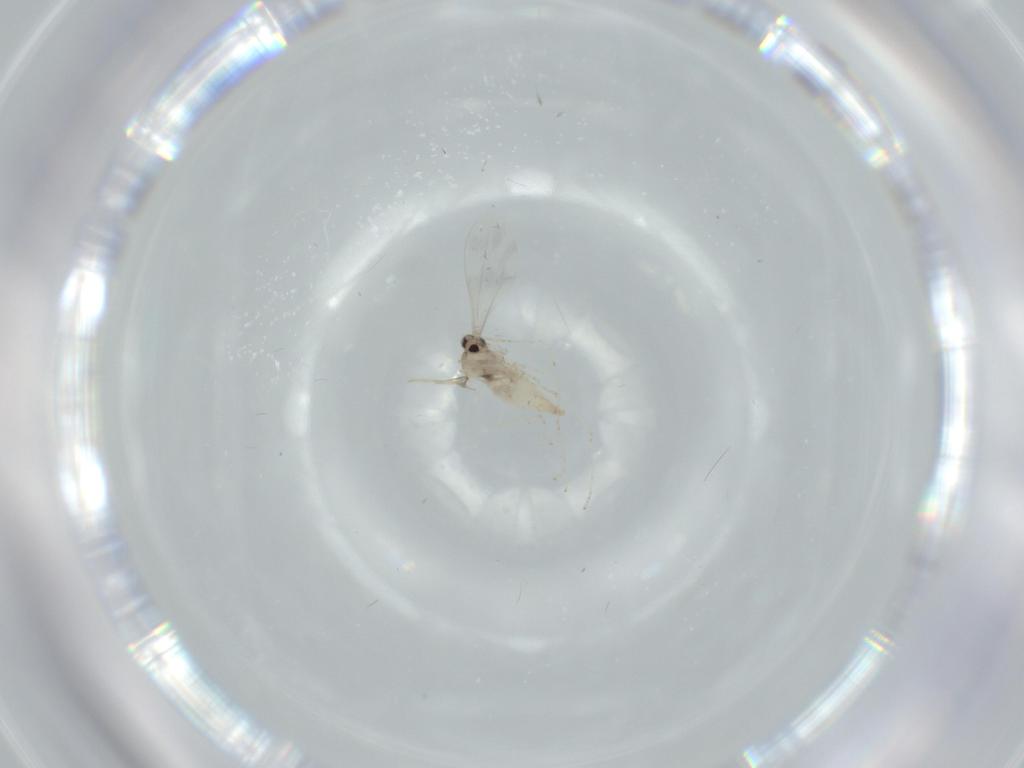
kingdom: Animalia
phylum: Arthropoda
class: Insecta
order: Diptera
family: Cecidomyiidae
